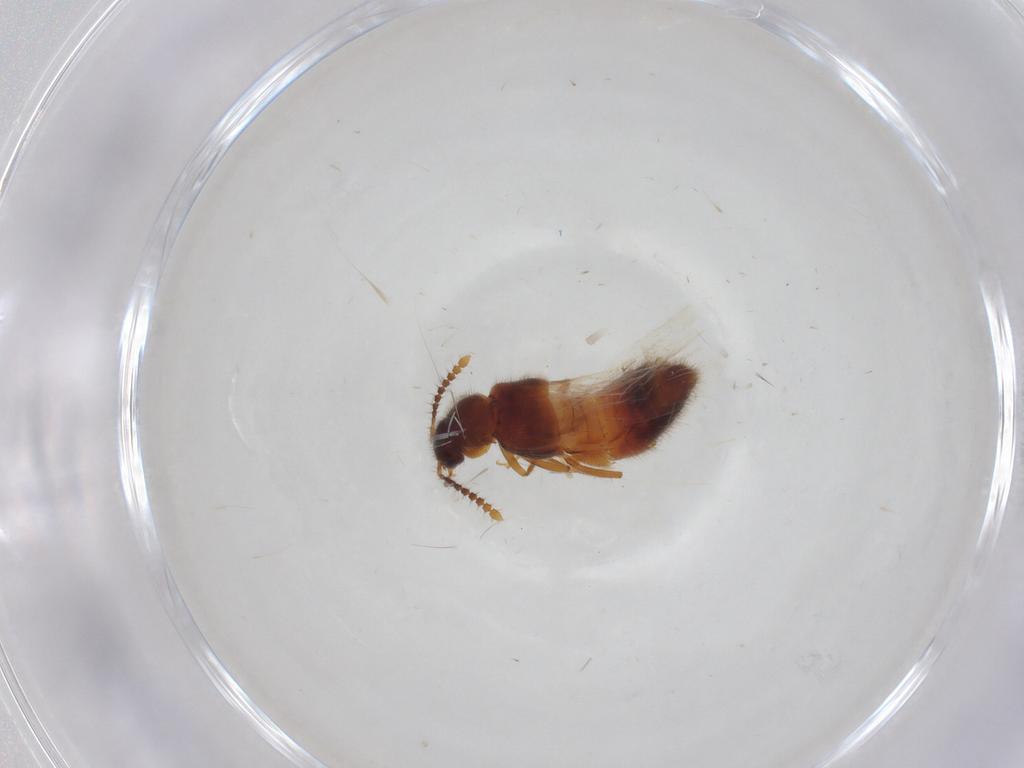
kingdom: Animalia
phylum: Arthropoda
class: Insecta
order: Coleoptera
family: Staphylinidae
